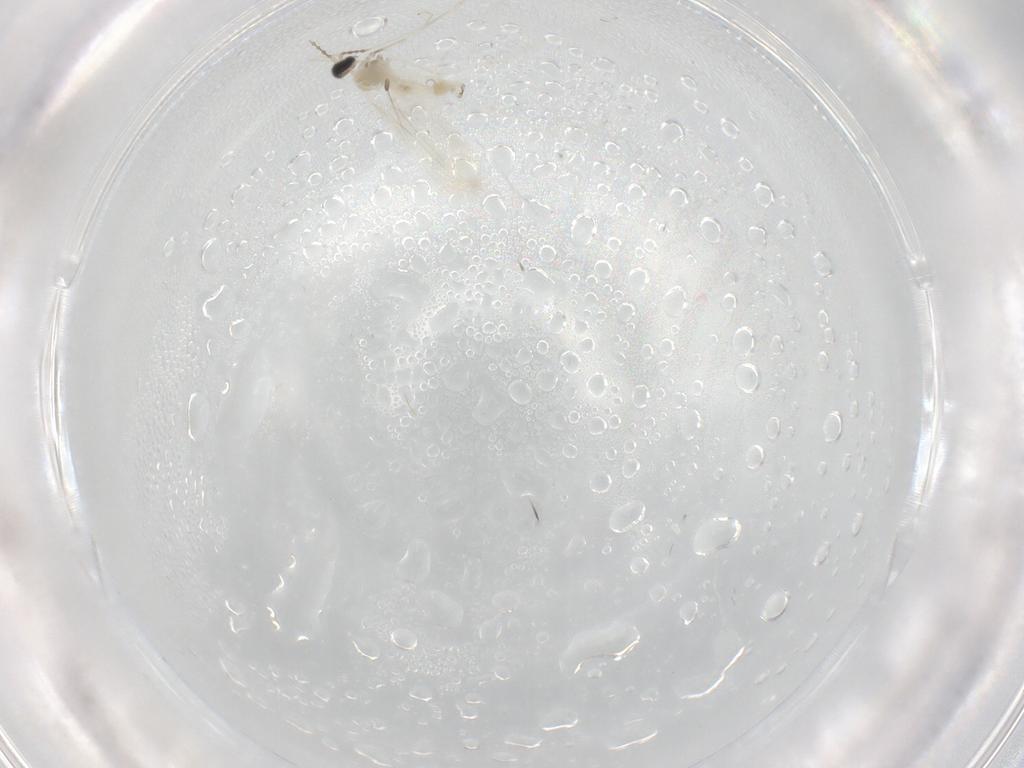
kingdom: Animalia
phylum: Arthropoda
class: Insecta
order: Diptera
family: Cecidomyiidae
